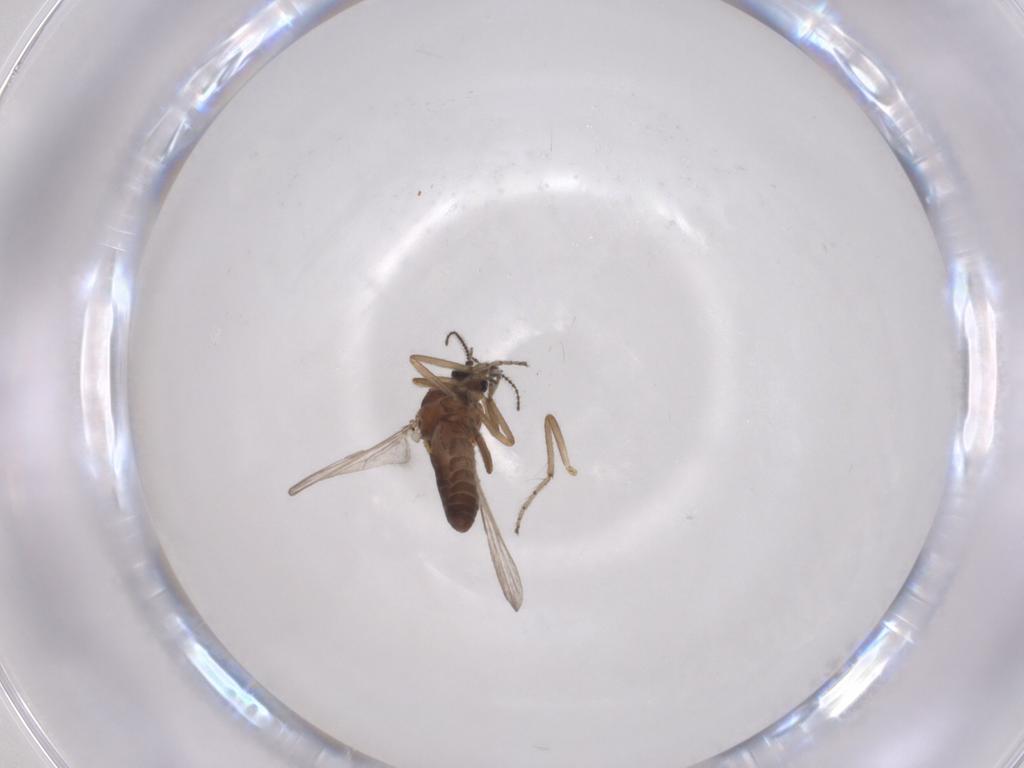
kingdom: Animalia
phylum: Arthropoda
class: Insecta
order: Diptera
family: Ceratopogonidae
